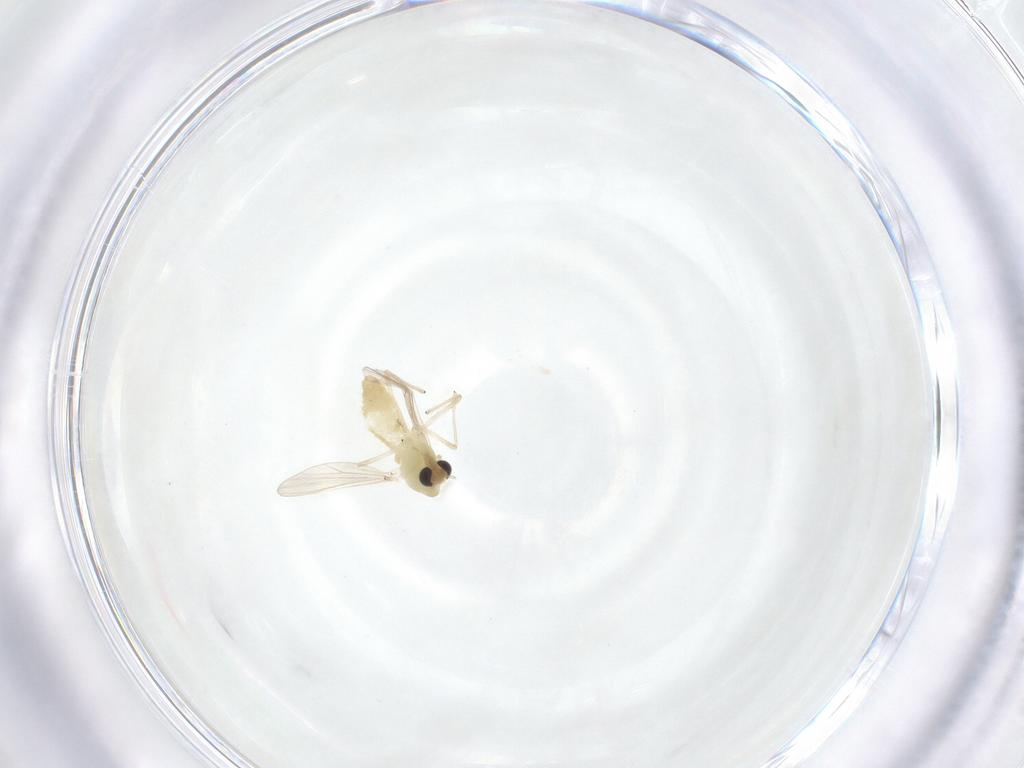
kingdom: Animalia
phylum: Arthropoda
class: Insecta
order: Diptera
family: Chironomidae
